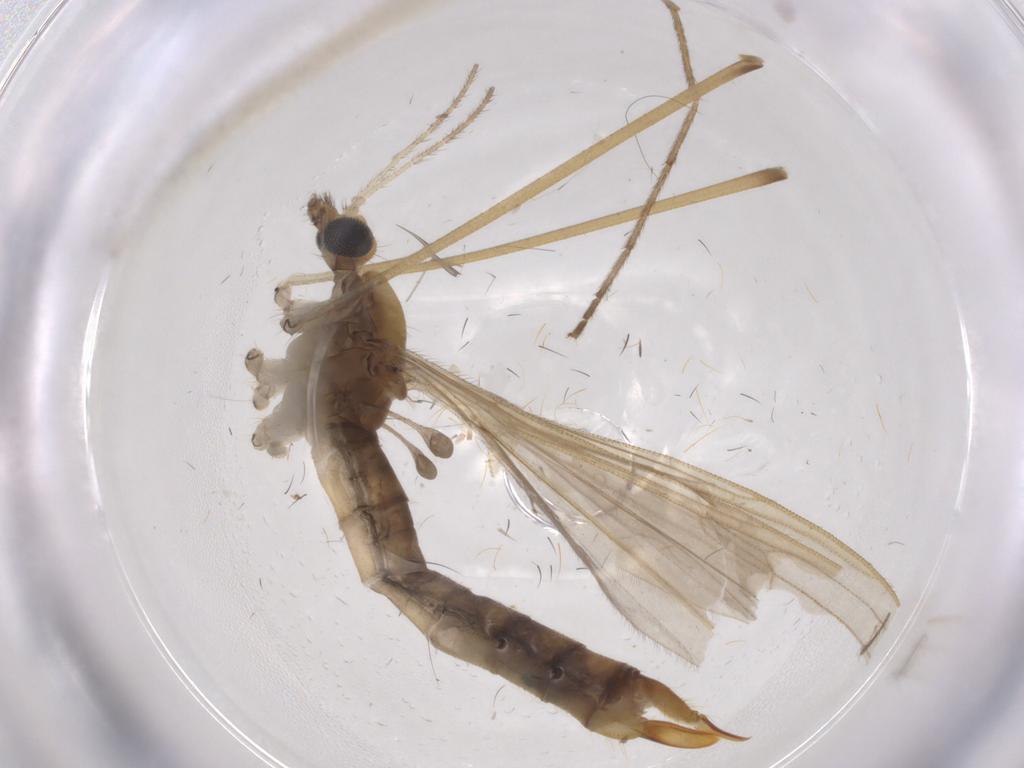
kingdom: Animalia
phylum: Arthropoda
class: Insecta
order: Diptera
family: Limoniidae
